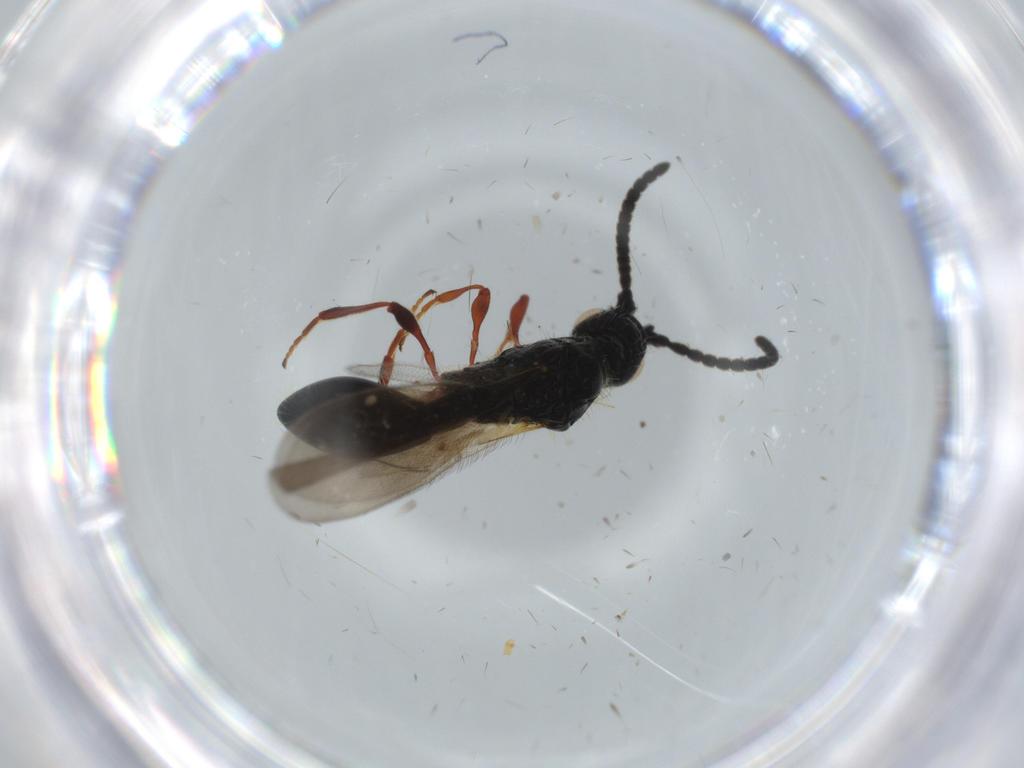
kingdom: Animalia
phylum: Arthropoda
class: Insecta
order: Hymenoptera
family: Diapriidae
